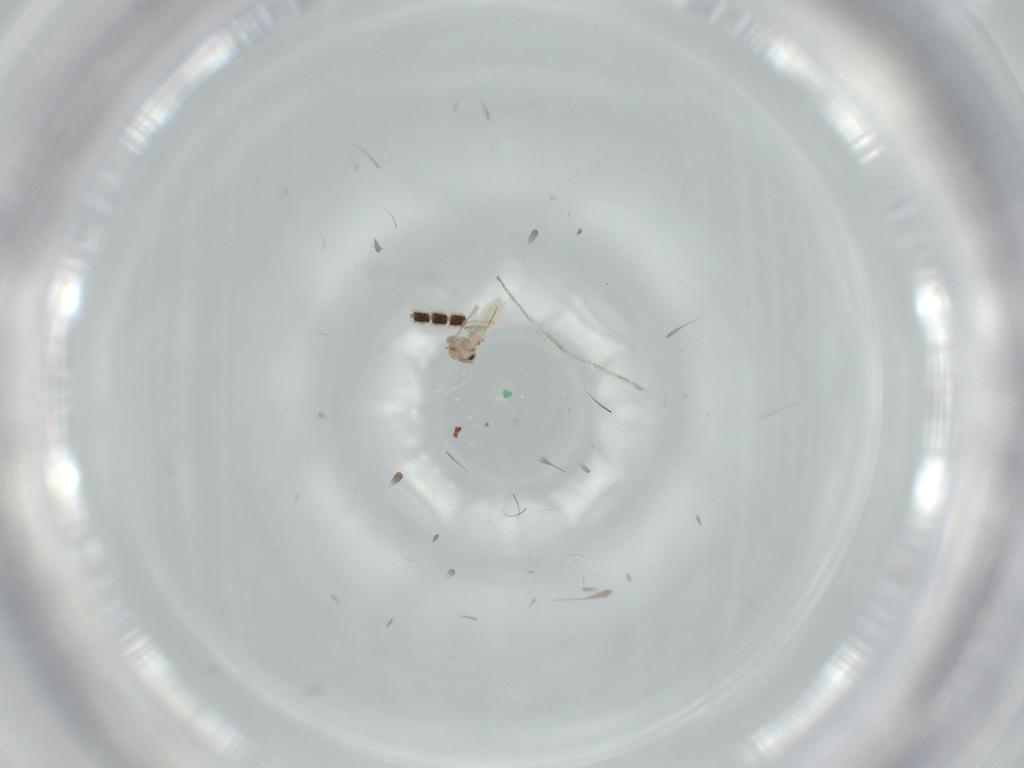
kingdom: Animalia
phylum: Arthropoda
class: Insecta
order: Psocodea
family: Lepidopsocidae
